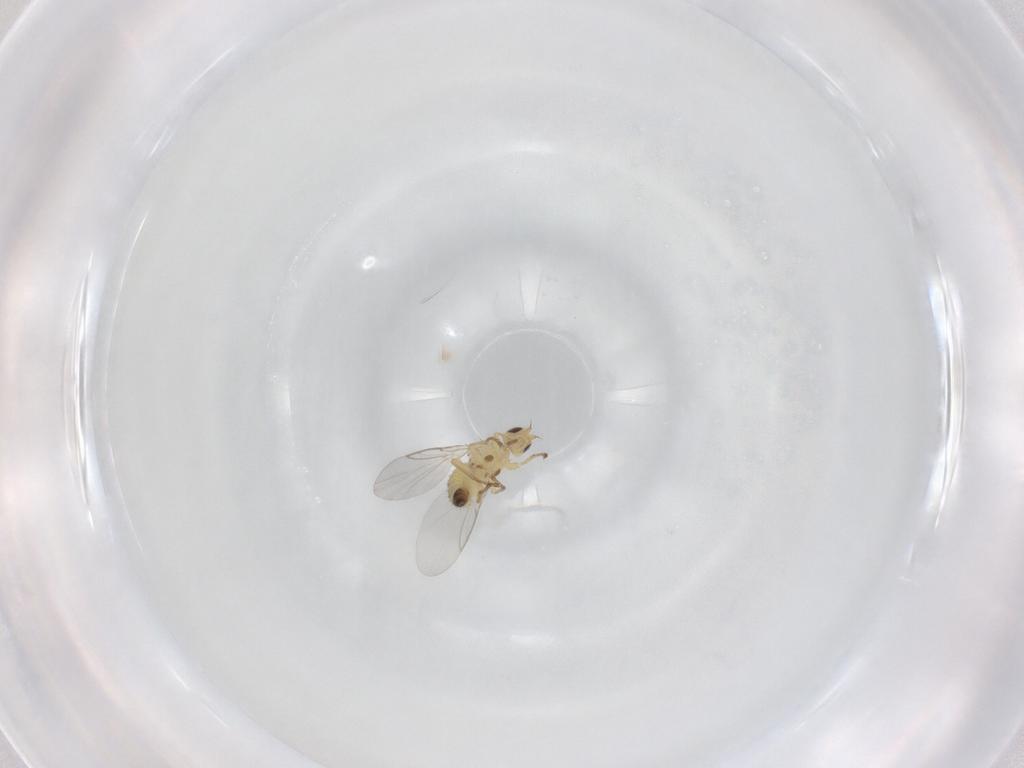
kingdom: Animalia
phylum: Arthropoda
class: Insecta
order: Diptera
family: Agromyzidae
